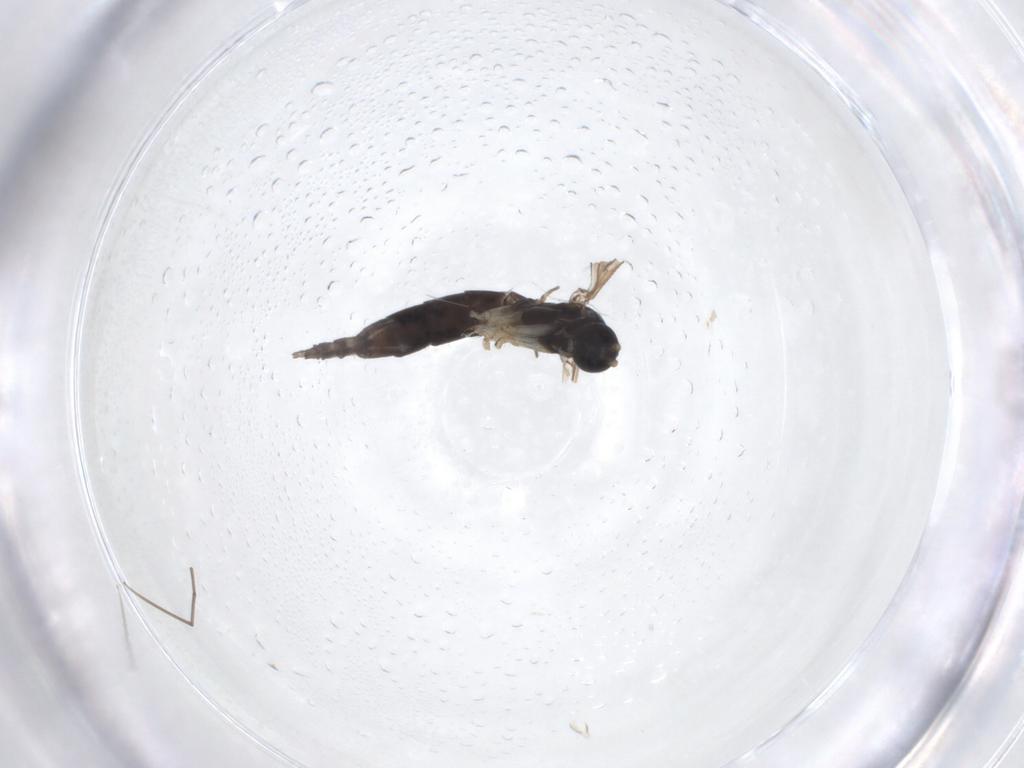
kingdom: Animalia
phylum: Arthropoda
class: Insecta
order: Diptera
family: Sciaridae
